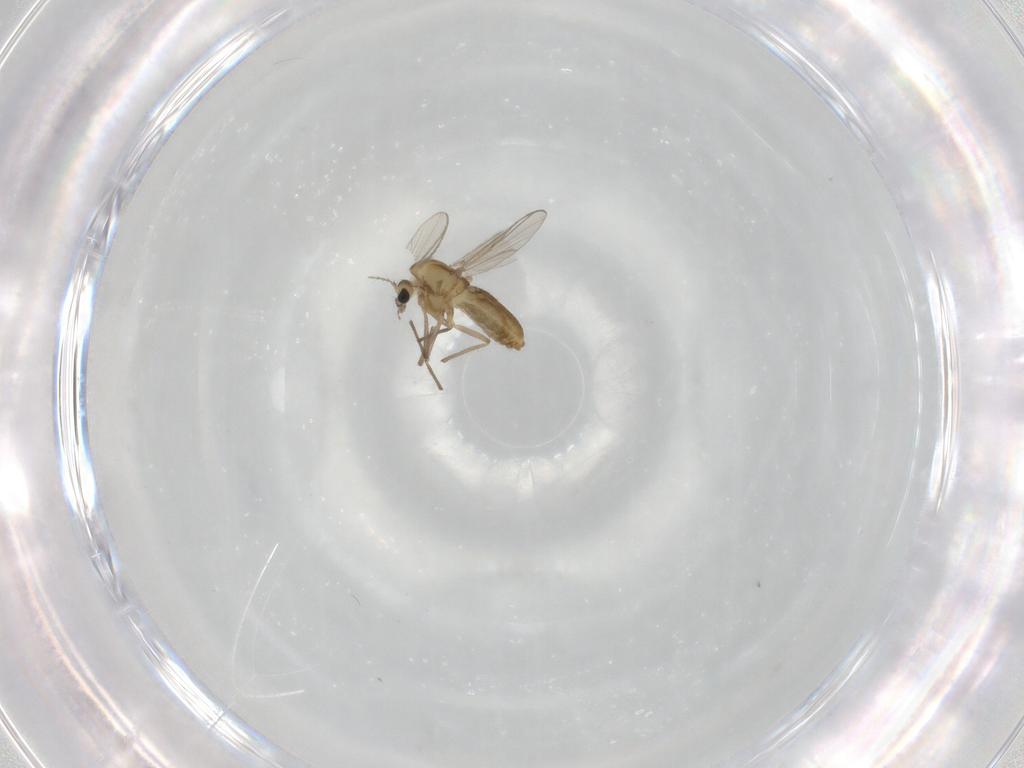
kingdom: Animalia
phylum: Arthropoda
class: Insecta
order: Diptera
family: Chironomidae
